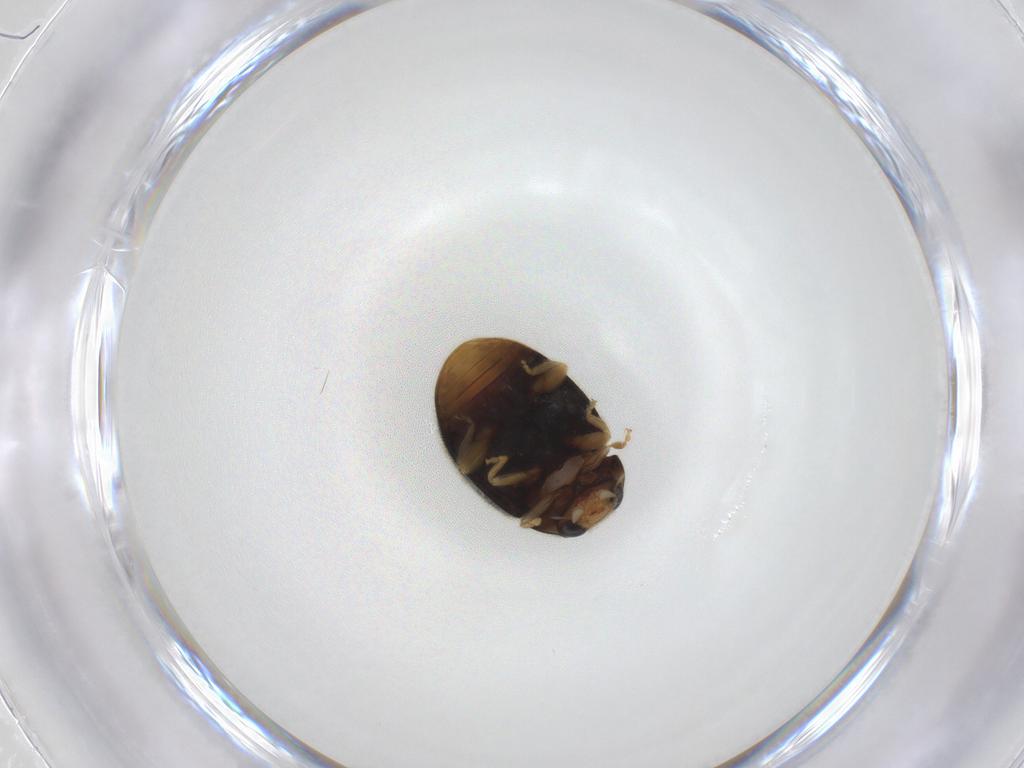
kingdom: Animalia
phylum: Arthropoda
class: Insecta
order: Coleoptera
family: Coccinellidae
